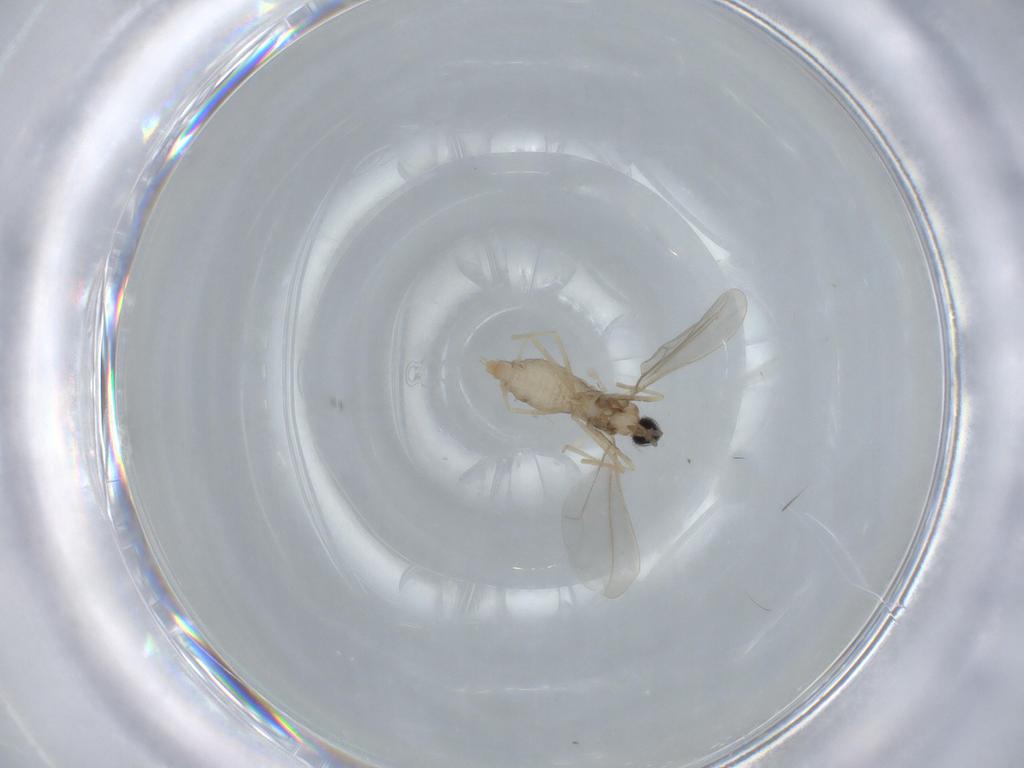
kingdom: Animalia
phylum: Arthropoda
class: Insecta
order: Diptera
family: Cecidomyiidae
